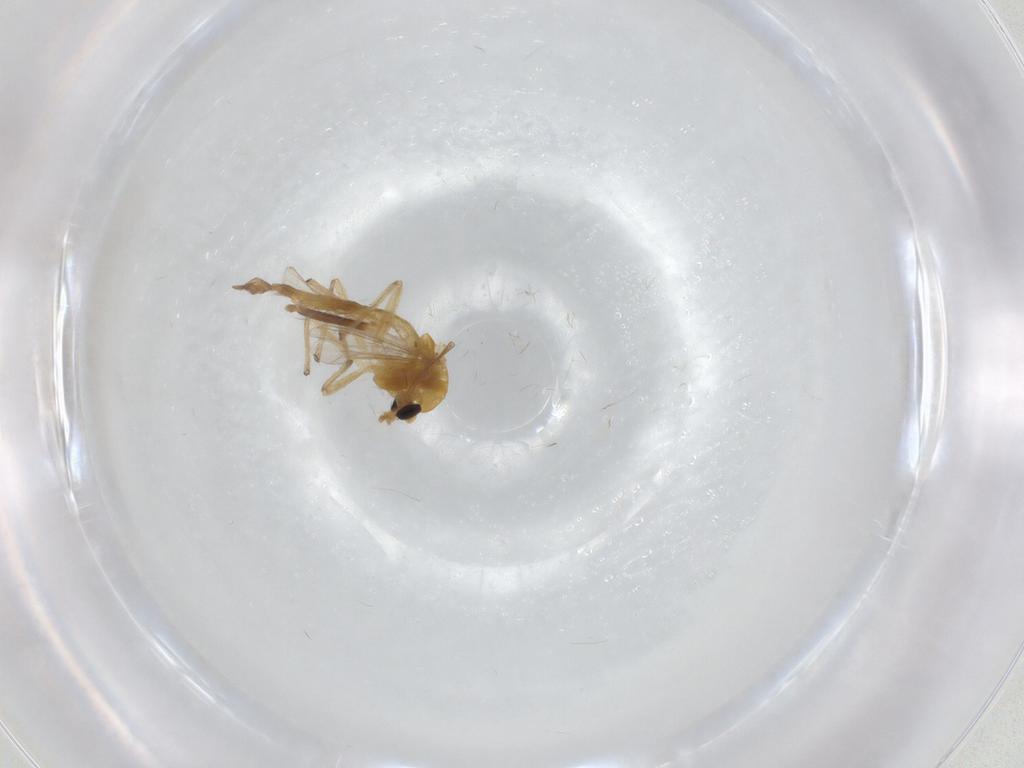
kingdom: Animalia
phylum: Arthropoda
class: Insecta
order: Diptera
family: Chironomidae
